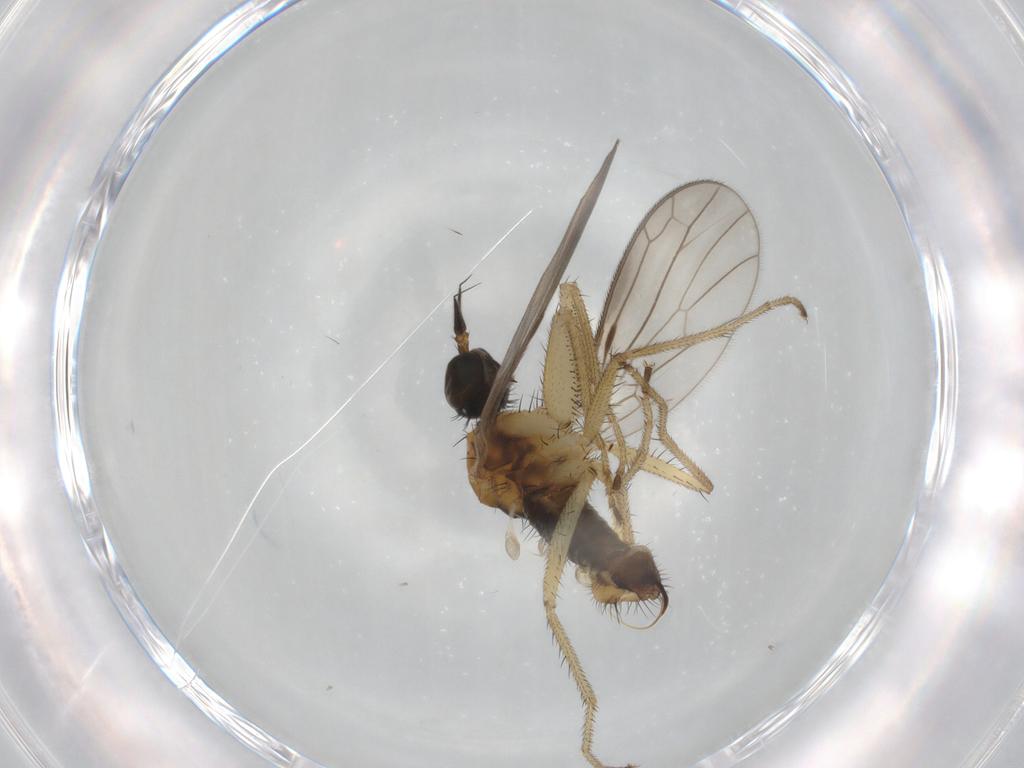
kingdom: Animalia
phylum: Arthropoda
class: Insecta
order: Diptera
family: Empididae
